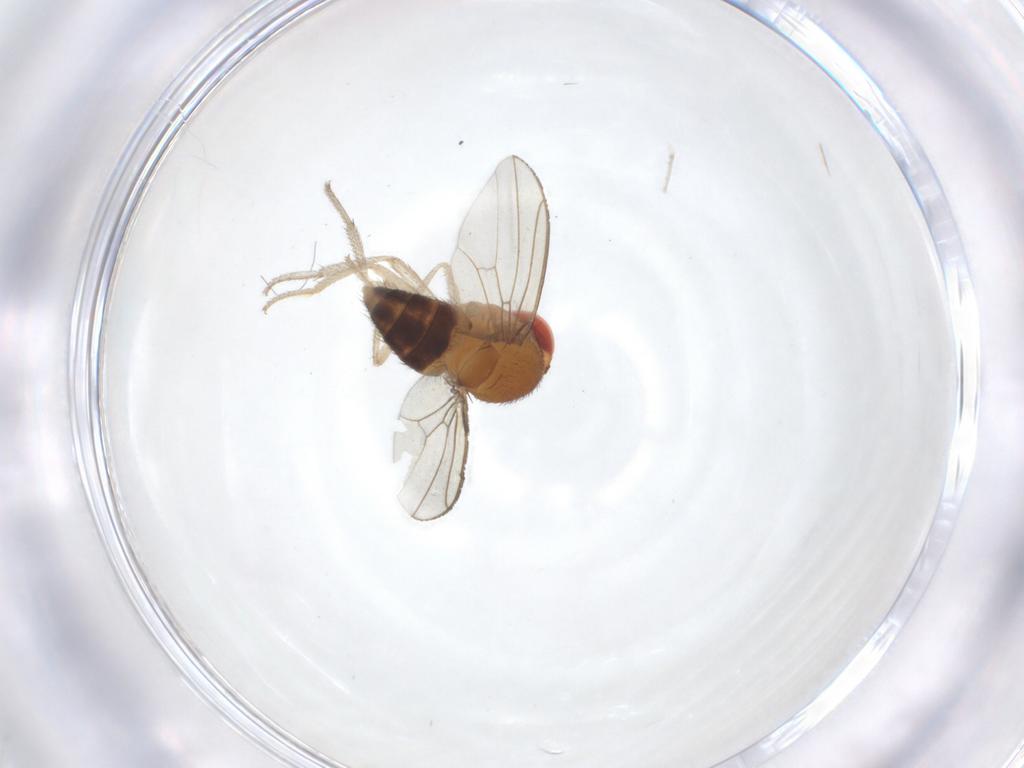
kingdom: Animalia
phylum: Arthropoda
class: Insecta
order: Diptera
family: Drosophilidae
